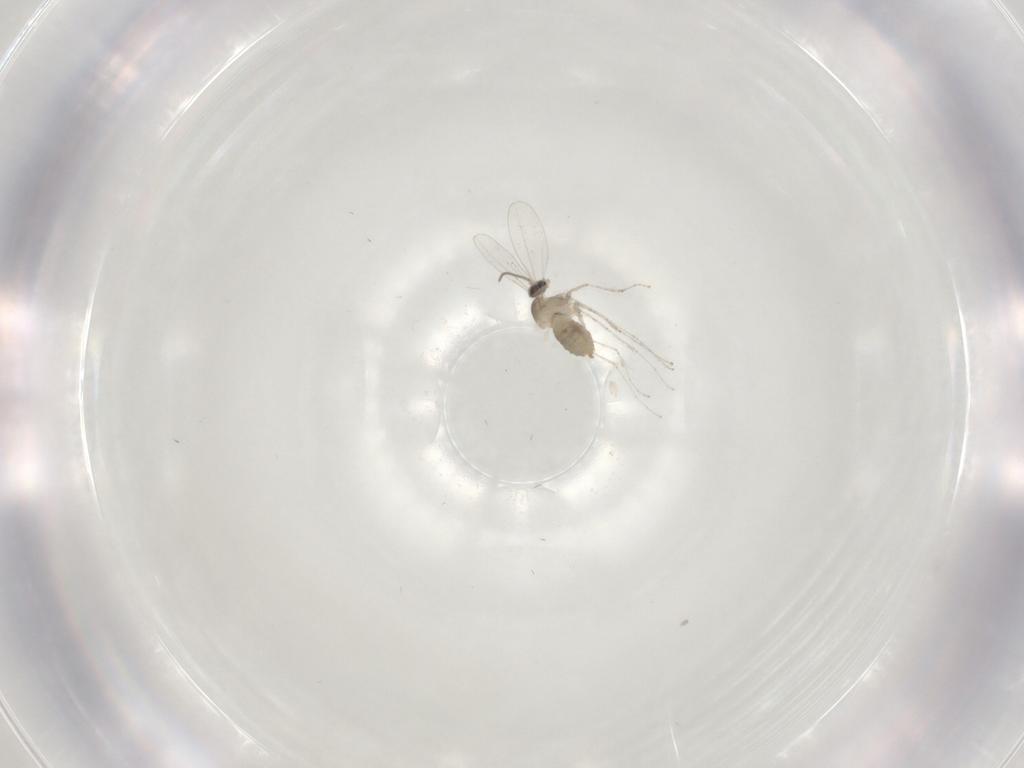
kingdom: Animalia
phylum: Arthropoda
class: Insecta
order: Diptera
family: Cecidomyiidae
